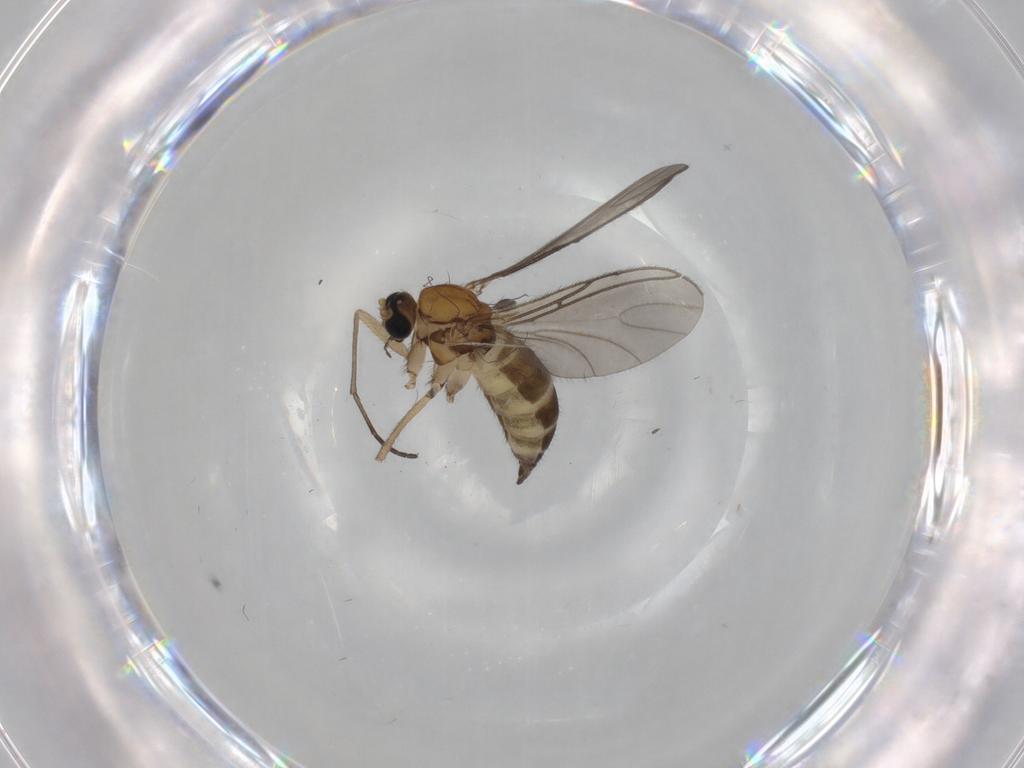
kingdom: Animalia
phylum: Arthropoda
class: Insecta
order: Diptera
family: Sciaridae
